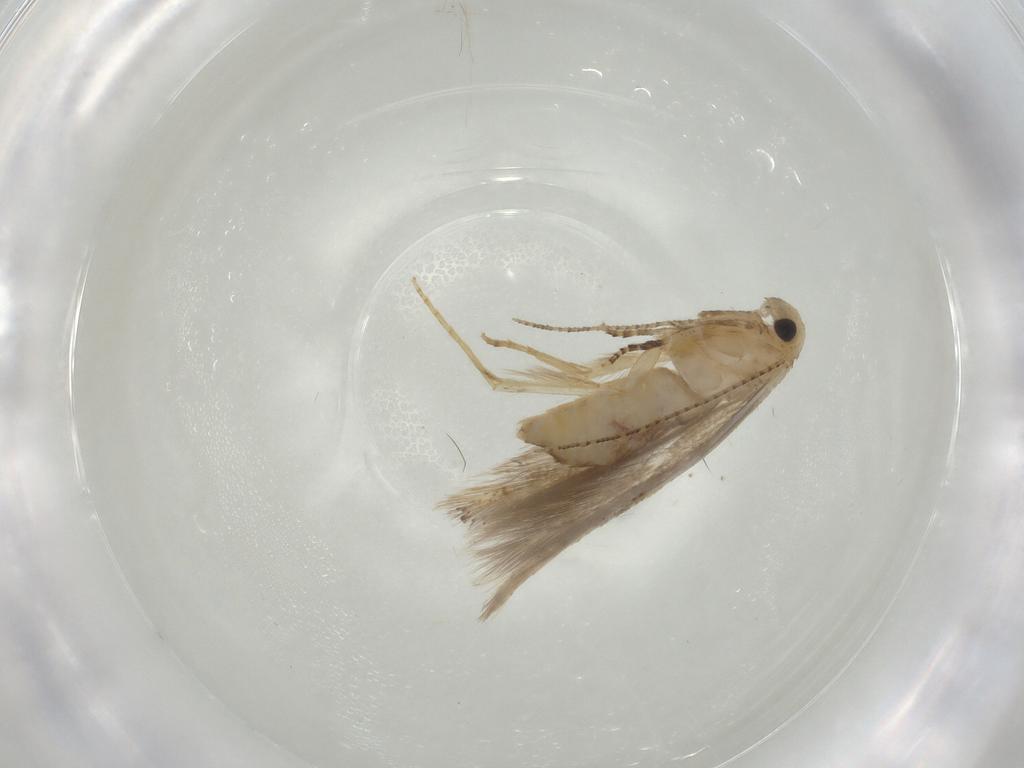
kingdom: Animalia
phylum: Arthropoda
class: Insecta
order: Lepidoptera
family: Bucculatricidae
